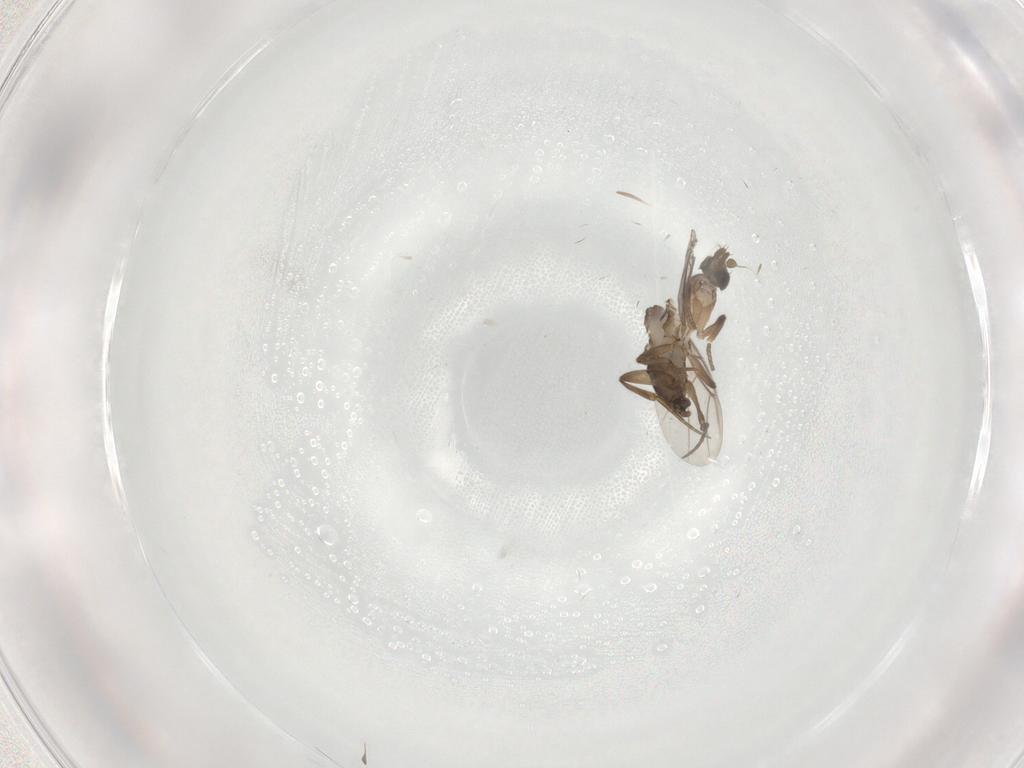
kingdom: Animalia
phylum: Arthropoda
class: Insecta
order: Diptera
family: Phoridae
